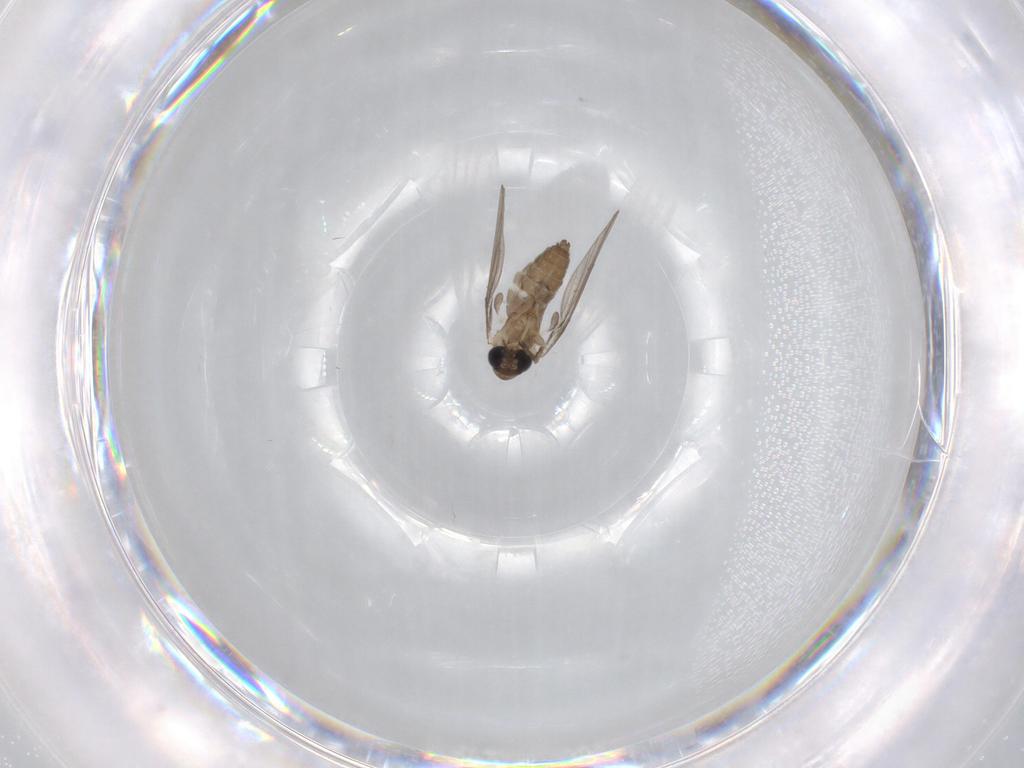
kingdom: Animalia
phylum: Arthropoda
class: Insecta
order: Diptera
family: Psychodidae
